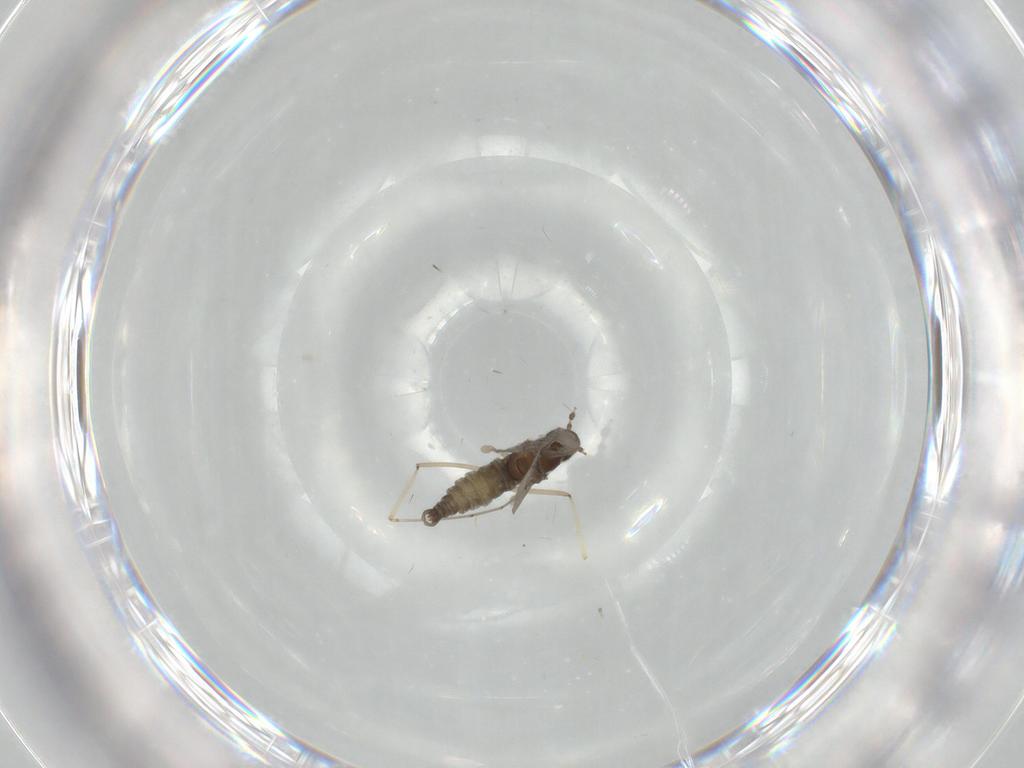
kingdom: Animalia
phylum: Arthropoda
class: Insecta
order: Diptera
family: Cecidomyiidae
